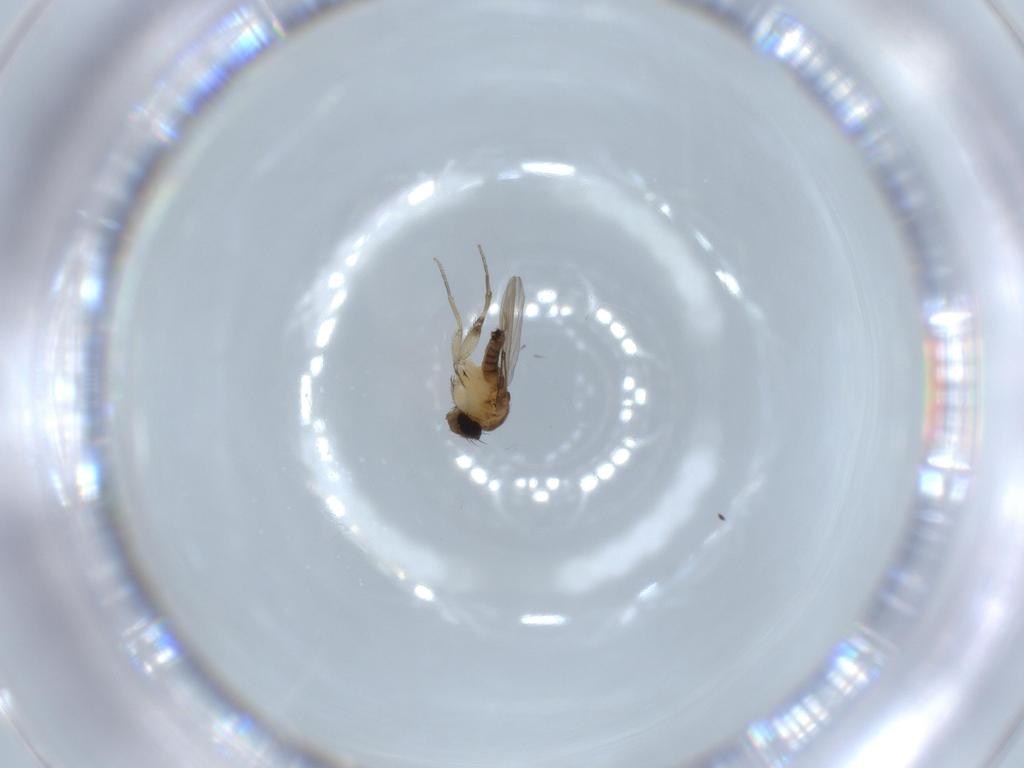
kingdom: Animalia
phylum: Arthropoda
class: Insecta
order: Diptera
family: Phoridae
